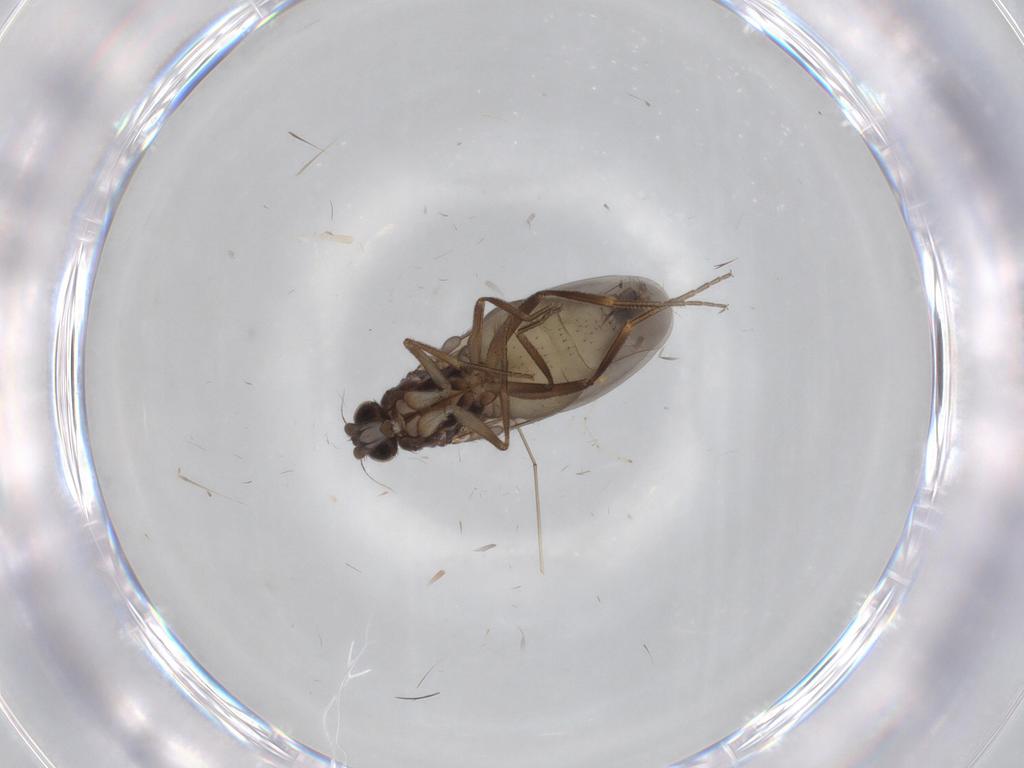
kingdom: Animalia
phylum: Arthropoda
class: Insecta
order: Diptera
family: Phoridae
